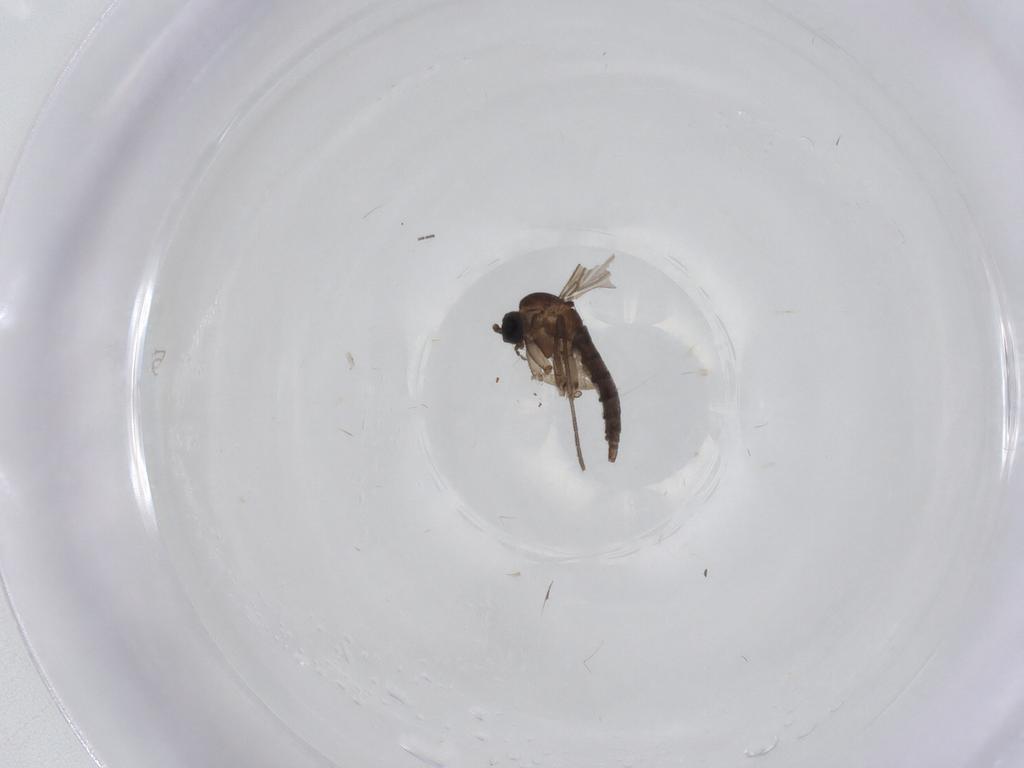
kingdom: Animalia
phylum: Arthropoda
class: Insecta
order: Diptera
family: Sciaridae
